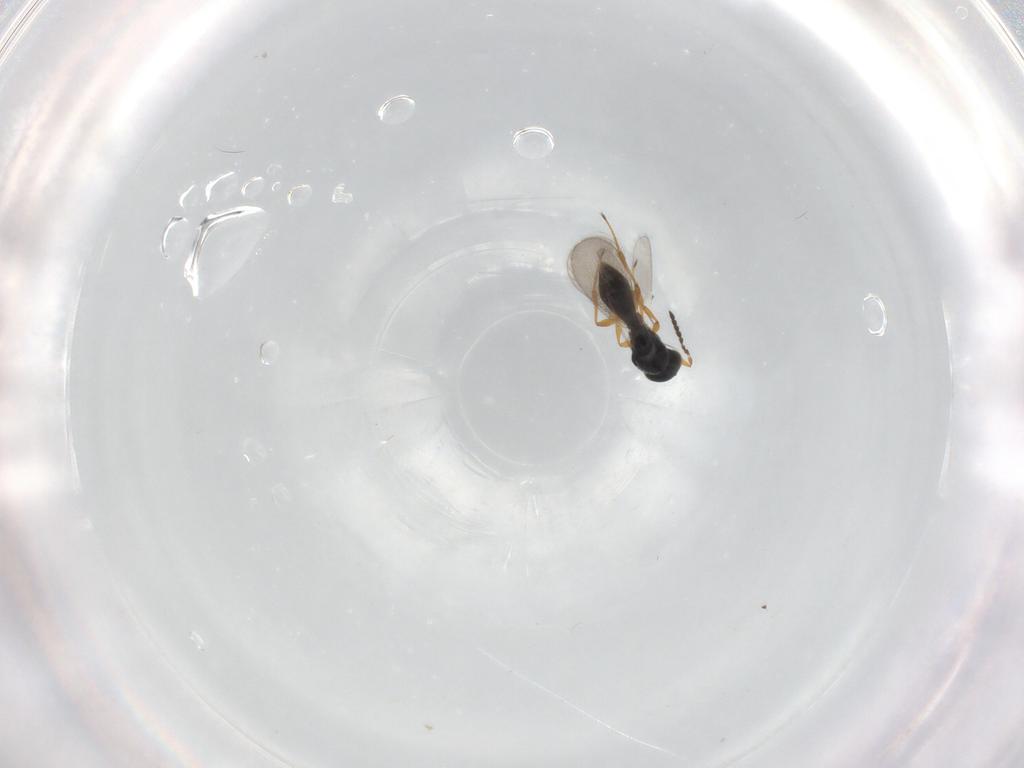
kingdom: Animalia
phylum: Arthropoda
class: Insecta
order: Hymenoptera
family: Platygastridae
